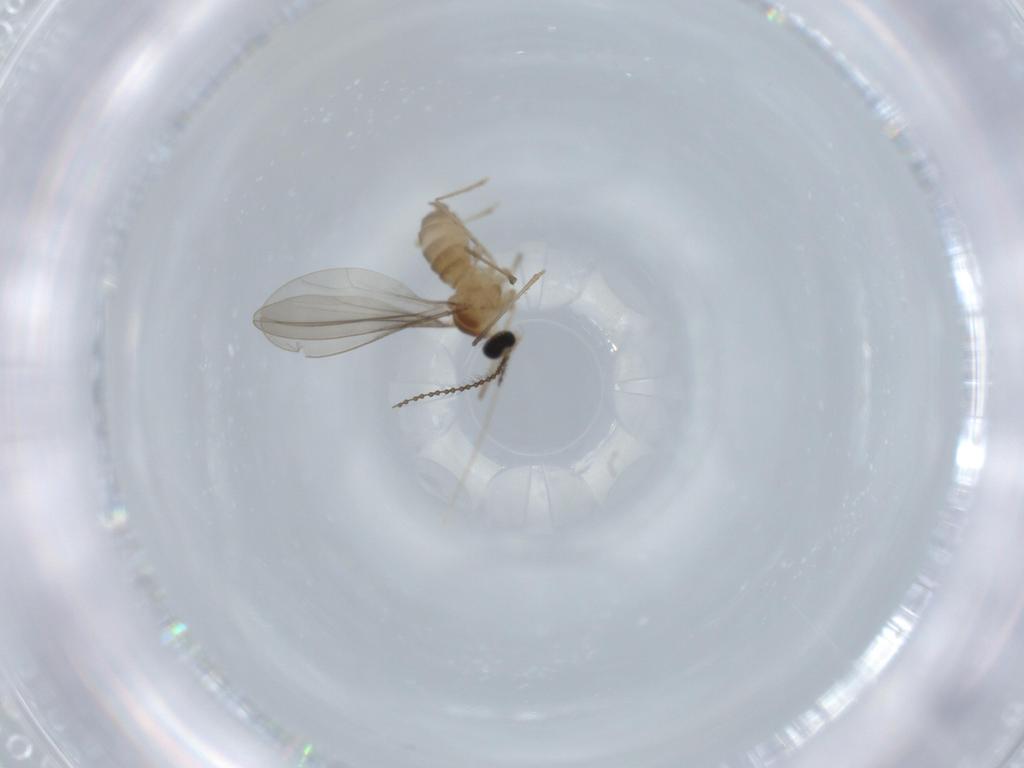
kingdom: Animalia
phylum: Arthropoda
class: Insecta
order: Diptera
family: Cecidomyiidae
